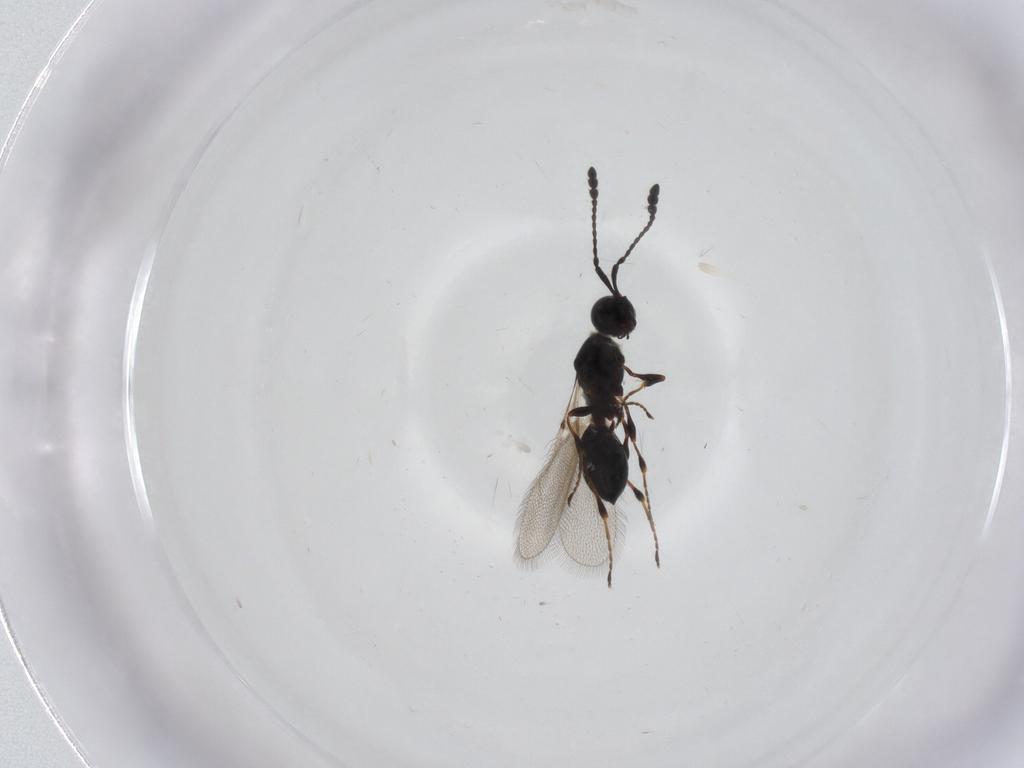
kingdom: Animalia
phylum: Arthropoda
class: Insecta
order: Hymenoptera
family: Diapriidae
